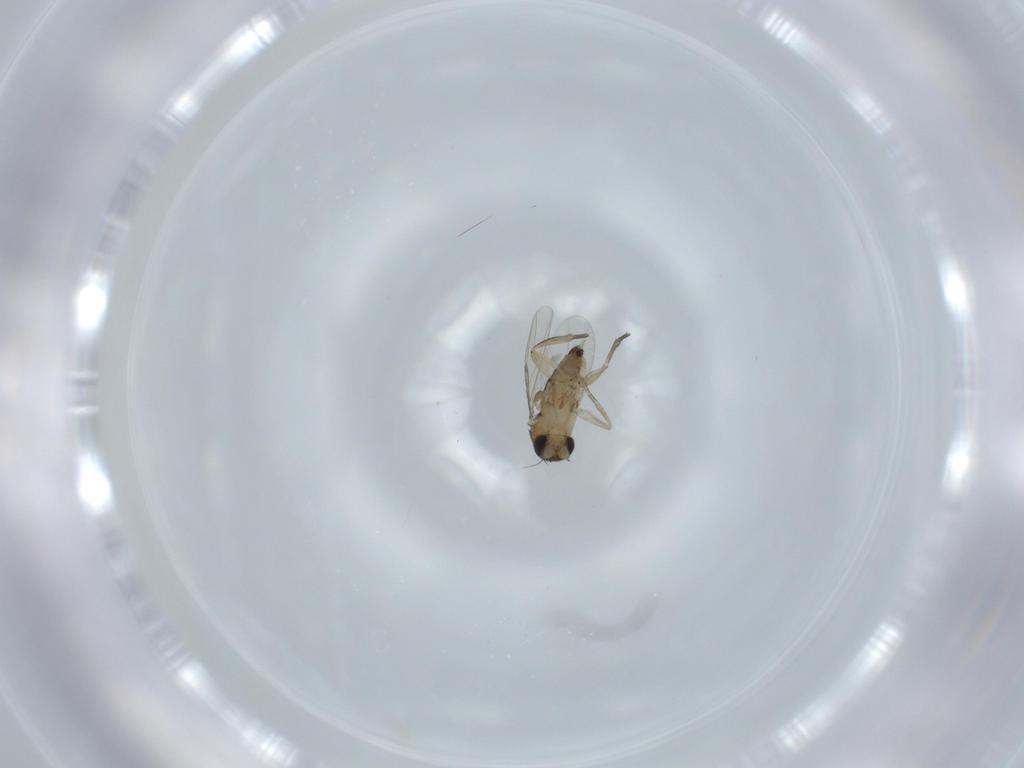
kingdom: Animalia
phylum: Arthropoda
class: Insecta
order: Diptera
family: Phoridae
